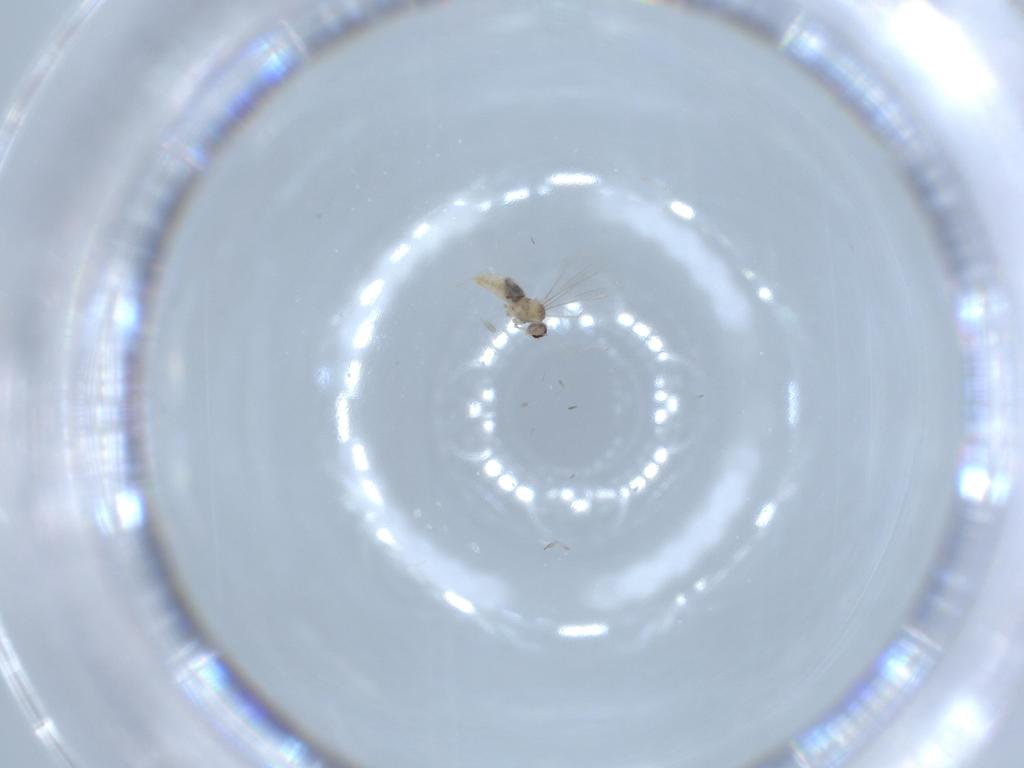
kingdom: Animalia
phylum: Arthropoda
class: Insecta
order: Diptera
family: Cecidomyiidae
